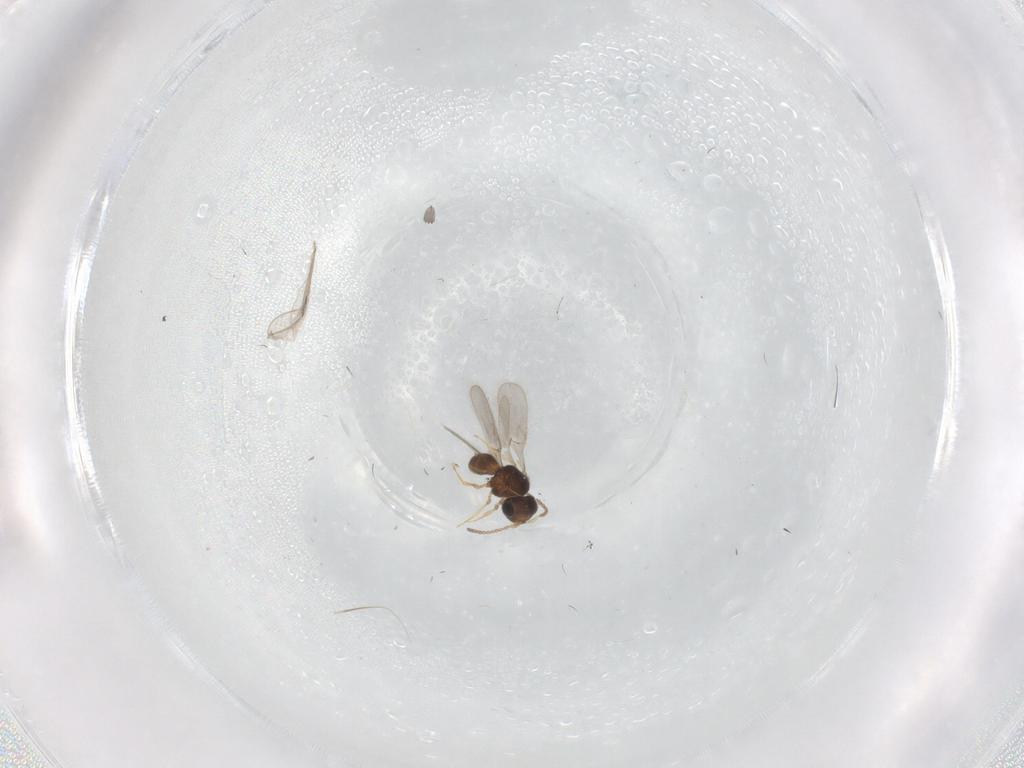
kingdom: Animalia
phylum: Arthropoda
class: Insecta
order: Hymenoptera
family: Scelionidae
